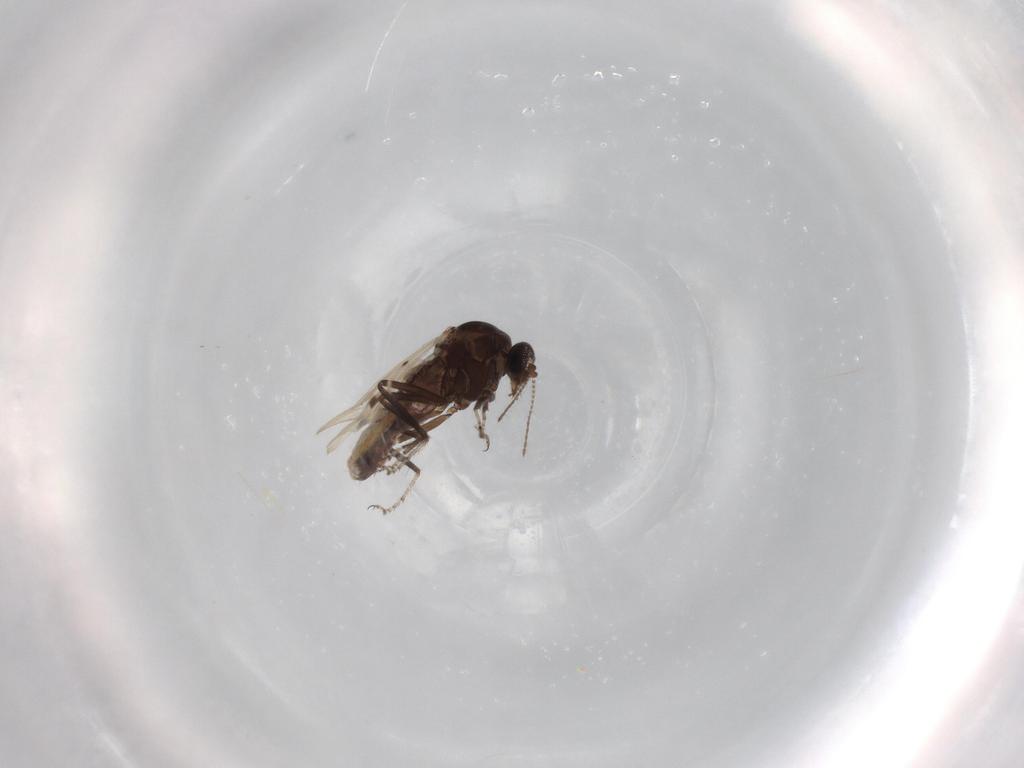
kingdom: Animalia
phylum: Arthropoda
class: Insecta
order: Diptera
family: Ceratopogonidae
